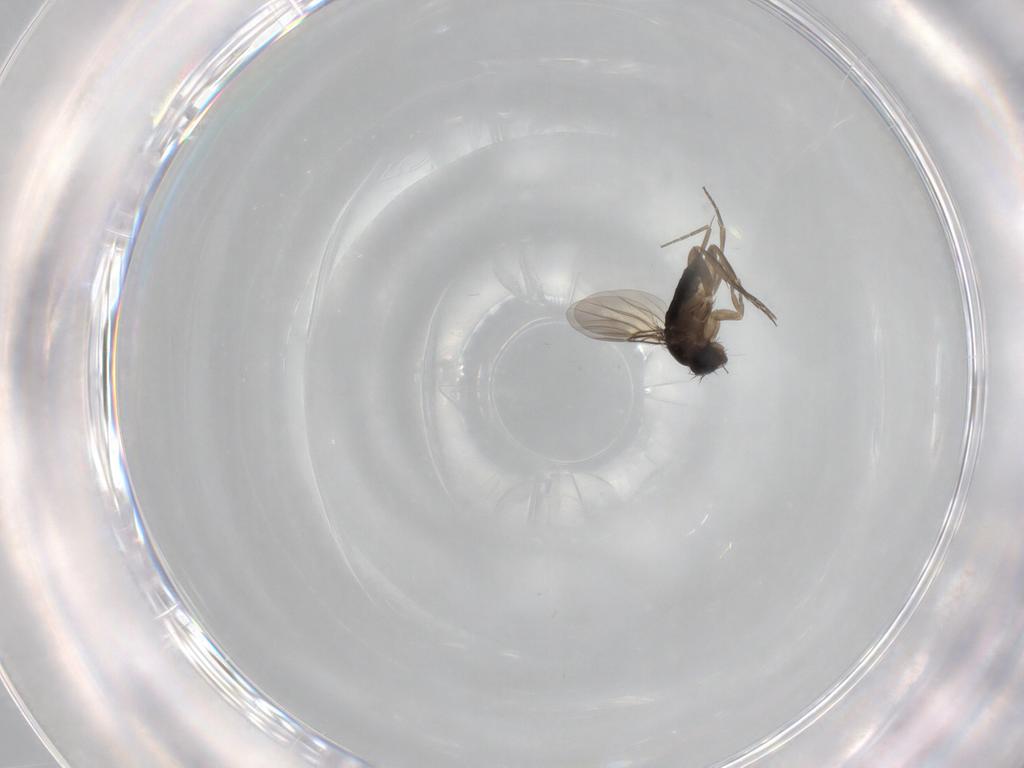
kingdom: Animalia
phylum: Arthropoda
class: Insecta
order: Diptera
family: Phoridae
